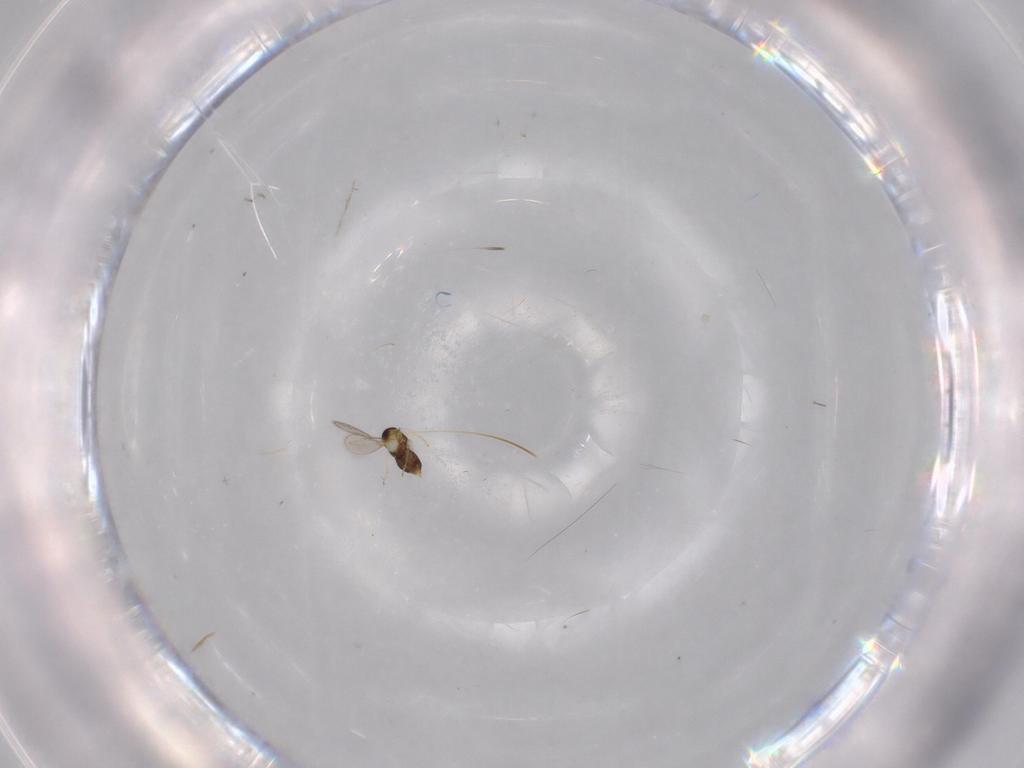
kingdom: Animalia
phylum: Arthropoda
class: Insecta
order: Hymenoptera
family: Aphelinidae
